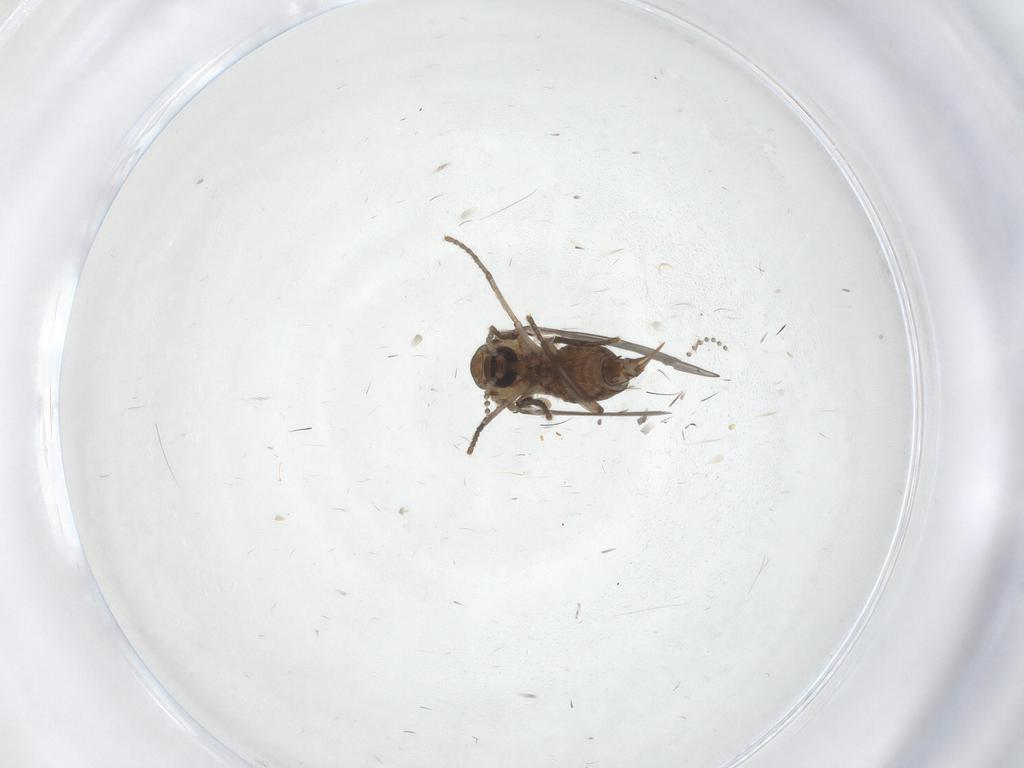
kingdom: Animalia
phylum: Arthropoda
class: Insecta
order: Diptera
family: Psychodidae
